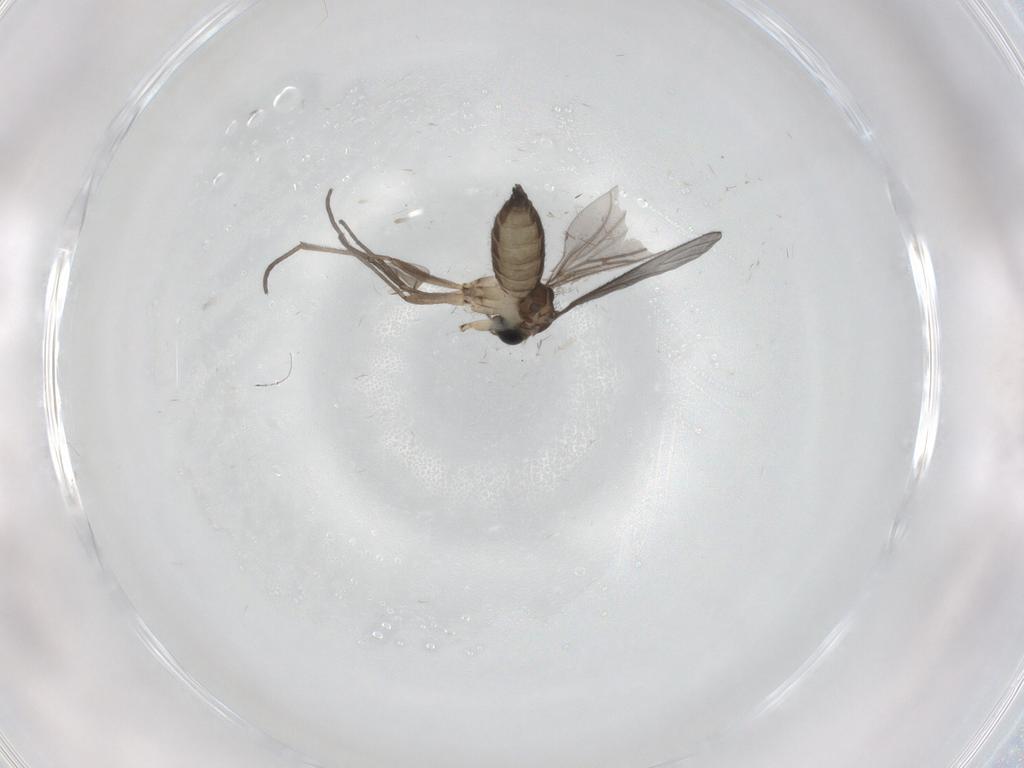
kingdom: Animalia
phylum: Arthropoda
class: Insecta
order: Diptera
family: Sciaridae
